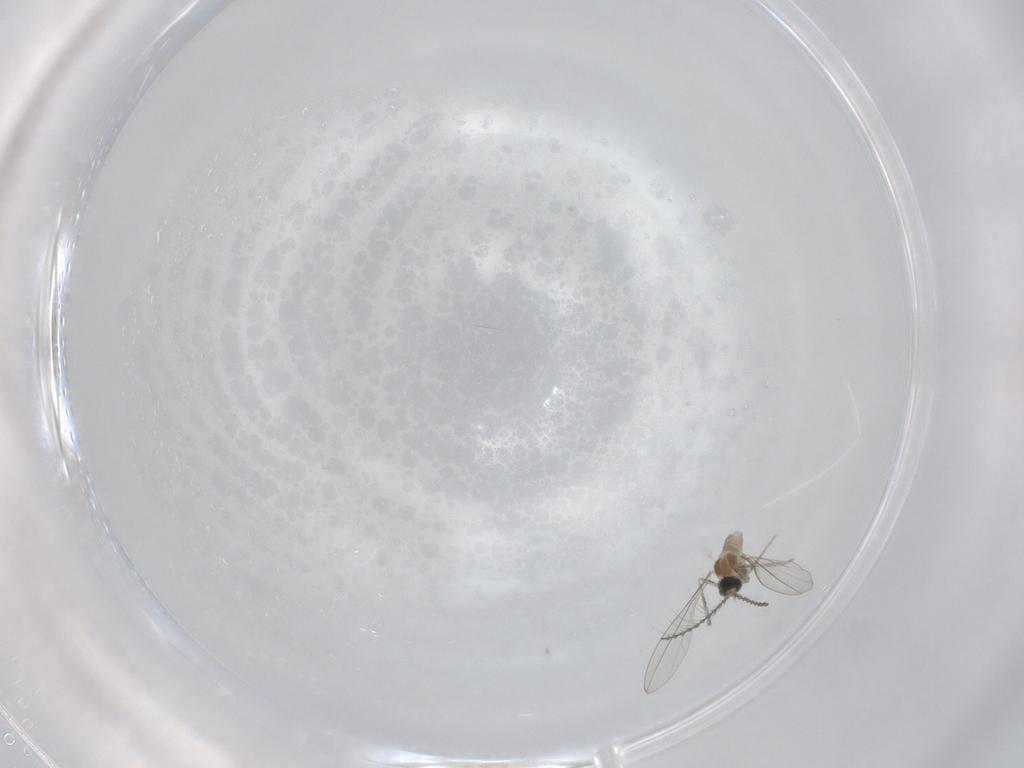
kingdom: Animalia
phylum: Arthropoda
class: Insecta
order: Diptera
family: Cecidomyiidae
